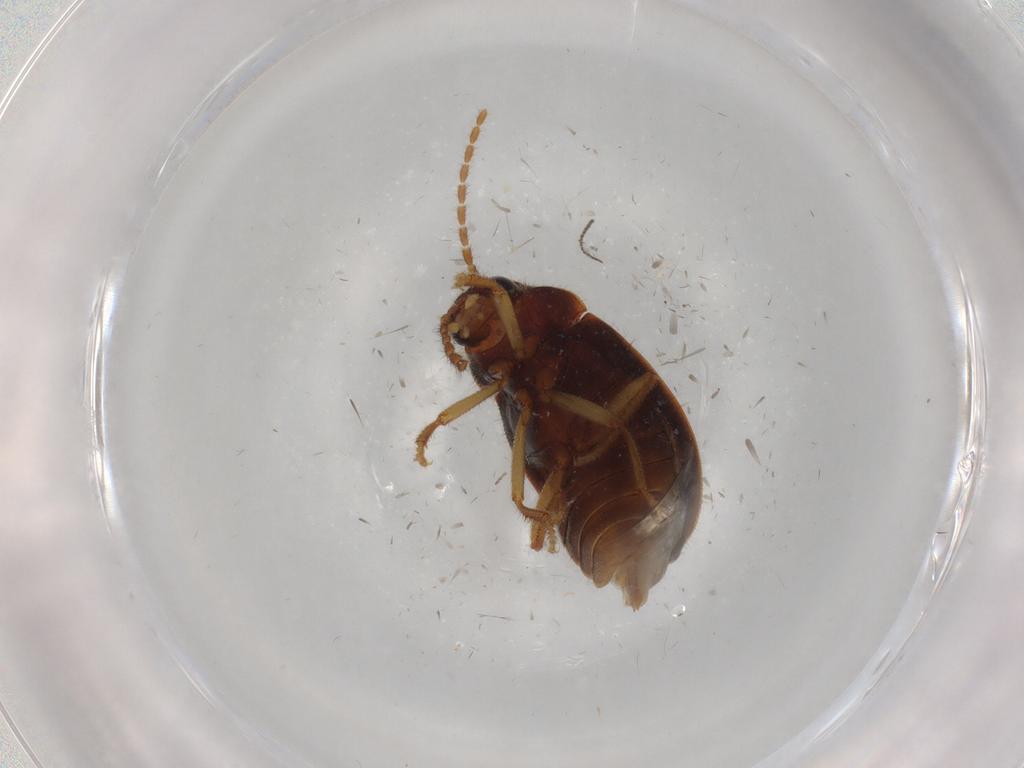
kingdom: Animalia
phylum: Arthropoda
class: Insecta
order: Coleoptera
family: Ptilodactylidae
